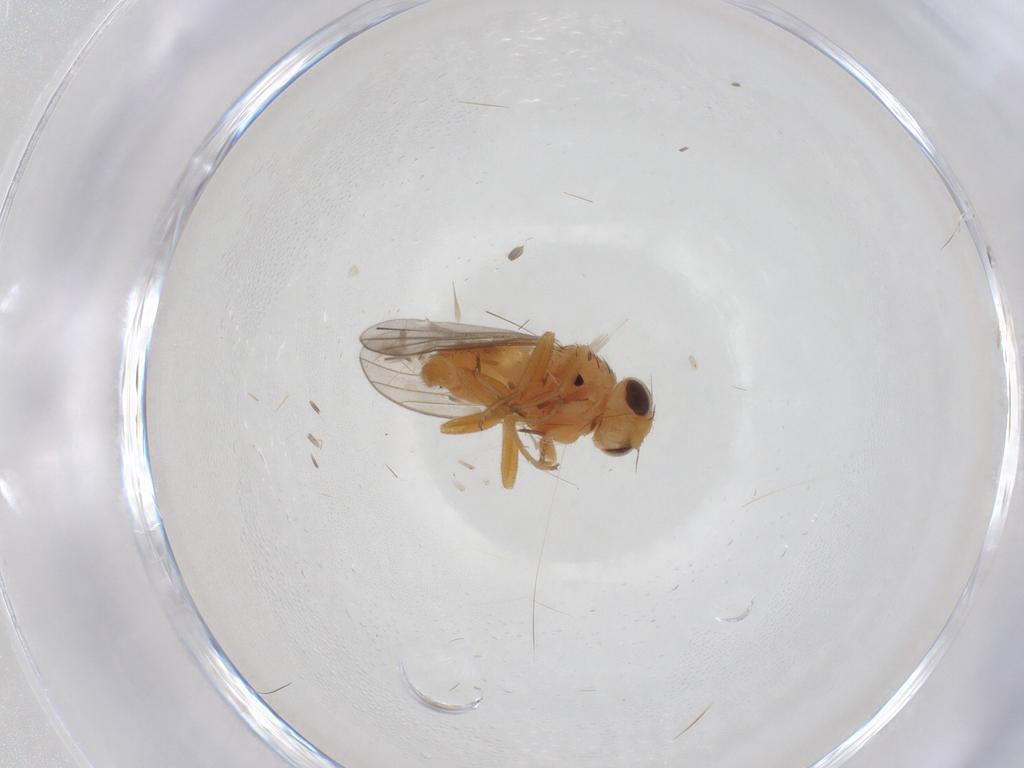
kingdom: Animalia
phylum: Arthropoda
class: Insecta
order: Diptera
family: Chloropidae
